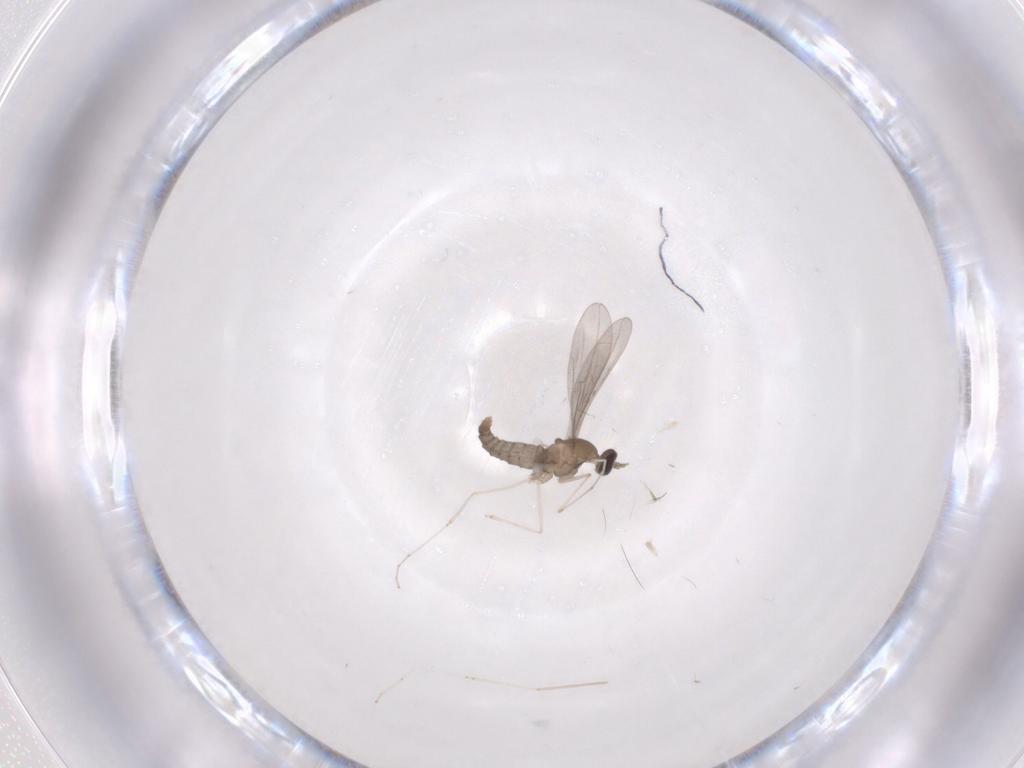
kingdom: Animalia
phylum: Arthropoda
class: Insecta
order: Diptera
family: Cecidomyiidae
